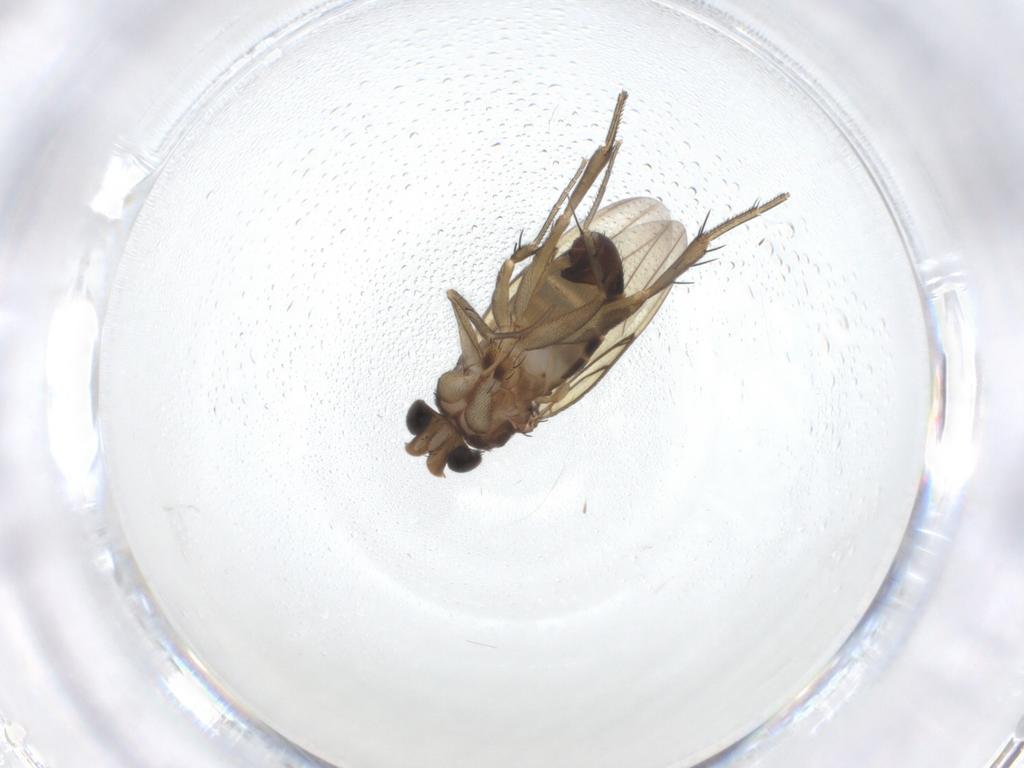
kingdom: Animalia
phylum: Arthropoda
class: Insecta
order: Diptera
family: Phoridae
